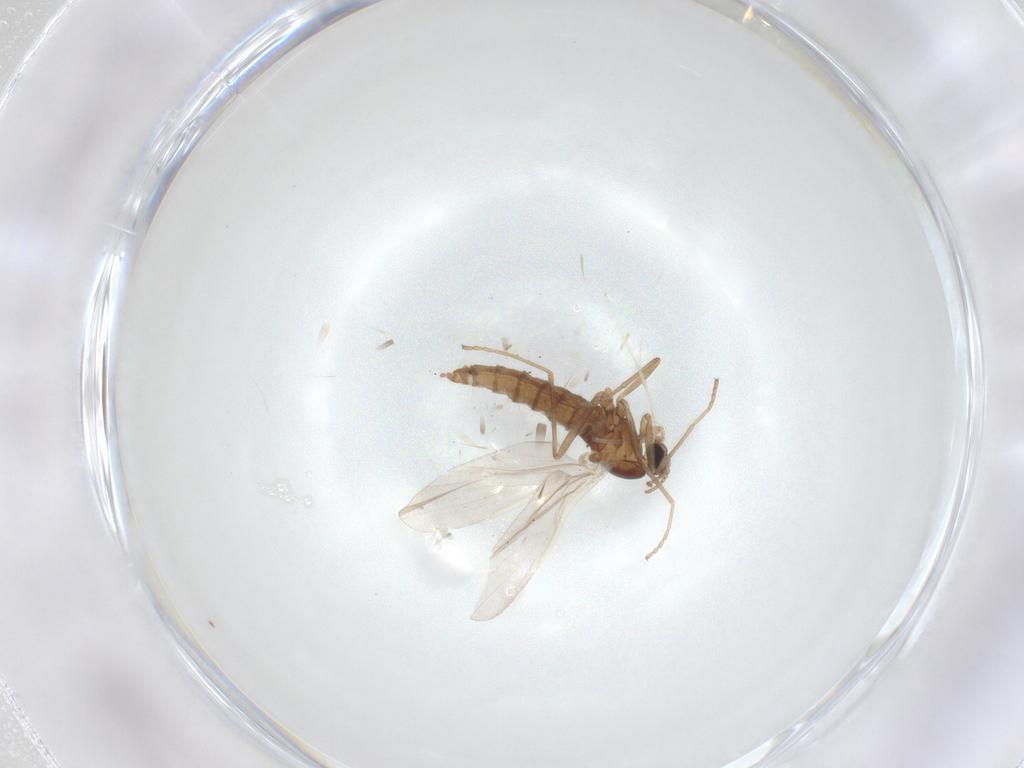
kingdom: Animalia
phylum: Arthropoda
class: Insecta
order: Diptera
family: Cecidomyiidae
